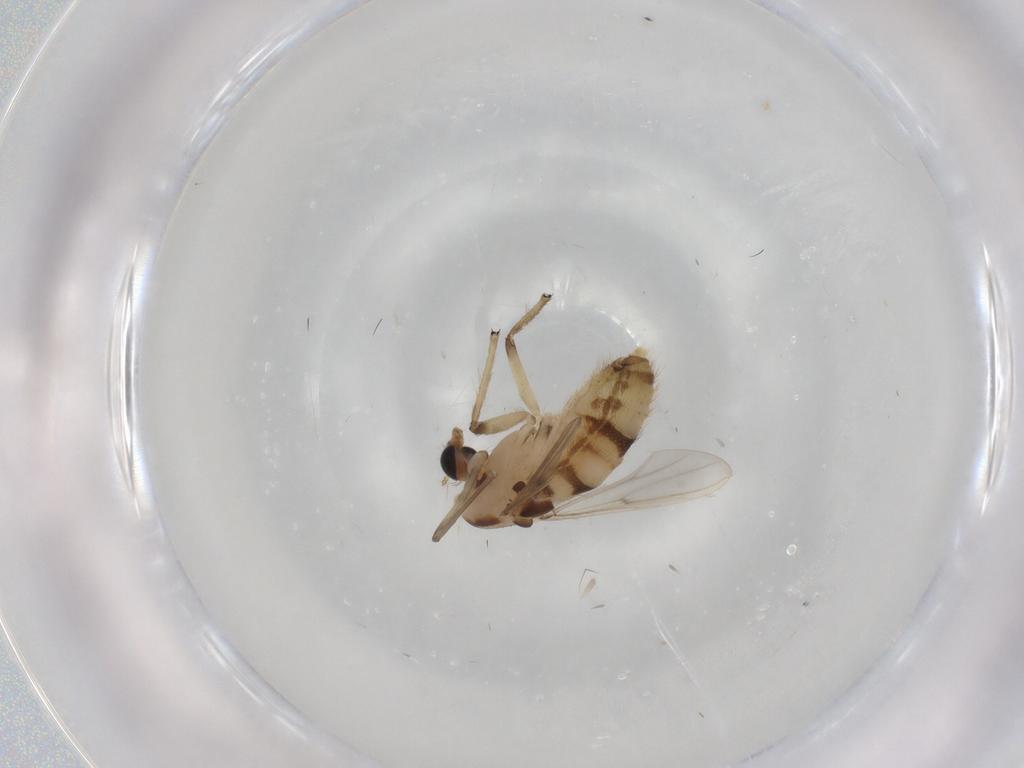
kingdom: Animalia
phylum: Arthropoda
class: Insecta
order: Diptera
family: Chironomidae
